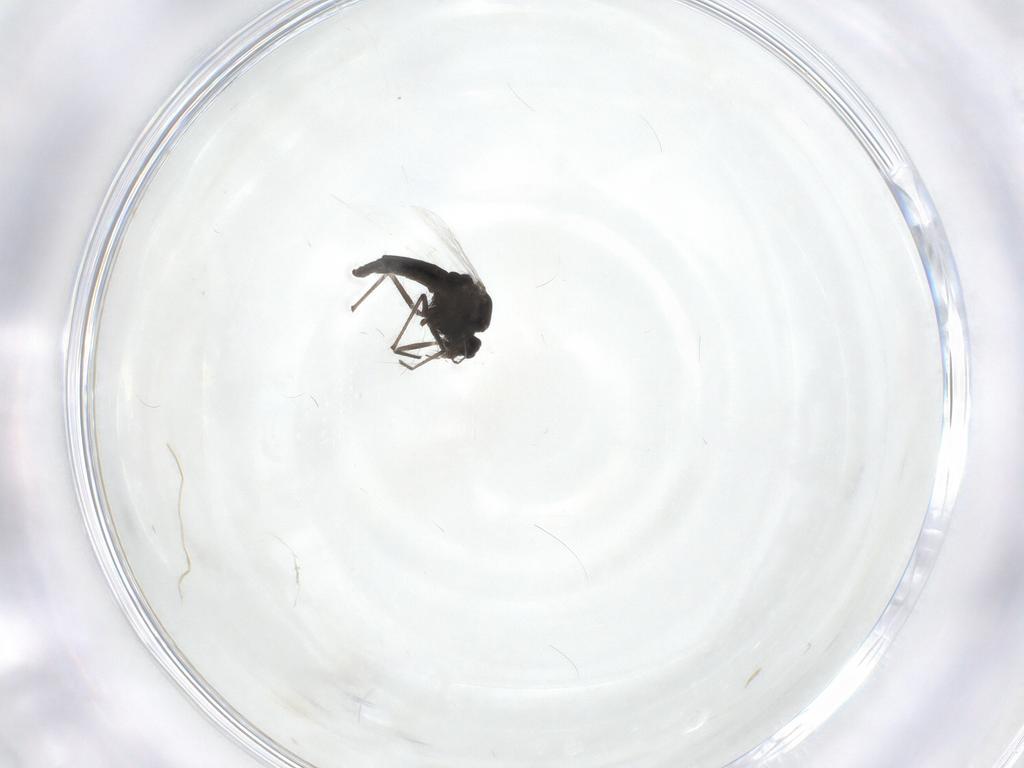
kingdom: Animalia
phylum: Arthropoda
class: Insecta
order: Diptera
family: Chironomidae
